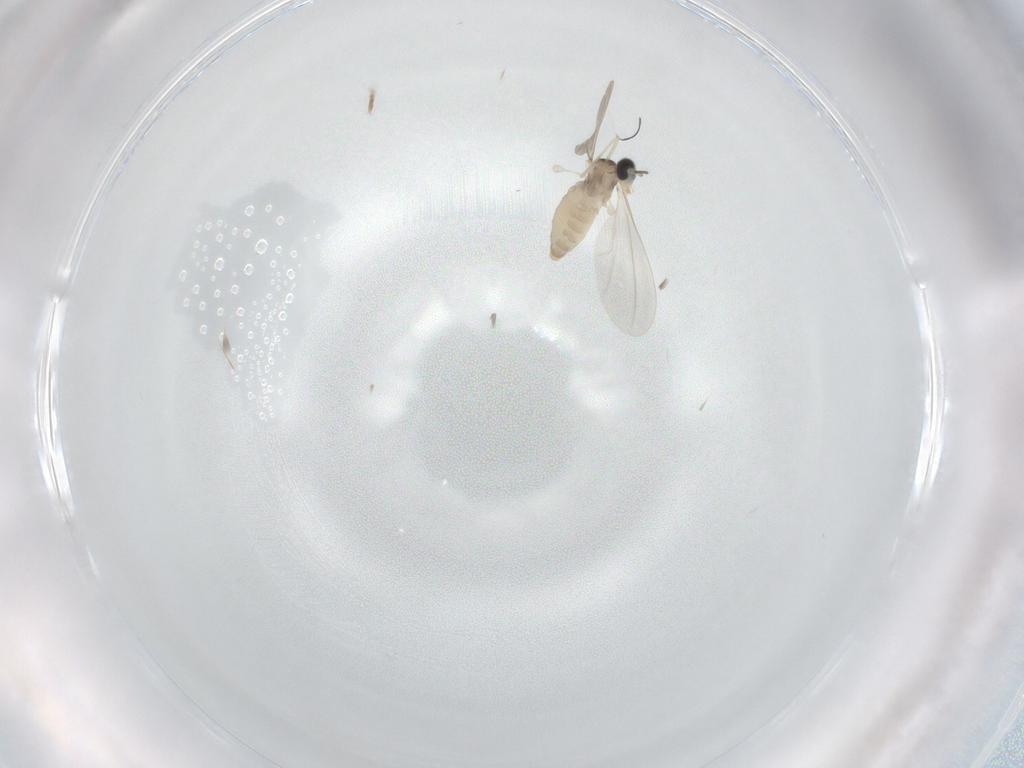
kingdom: Animalia
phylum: Arthropoda
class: Insecta
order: Diptera
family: Cecidomyiidae
